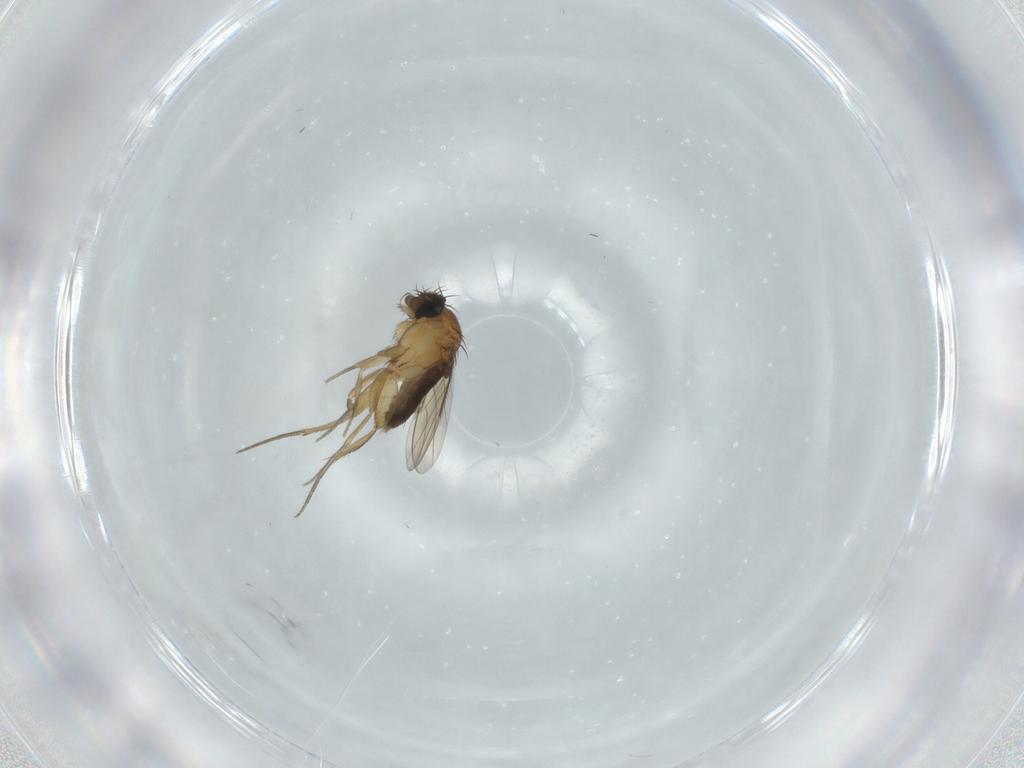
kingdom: Animalia
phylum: Arthropoda
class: Insecta
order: Diptera
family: Phoridae
